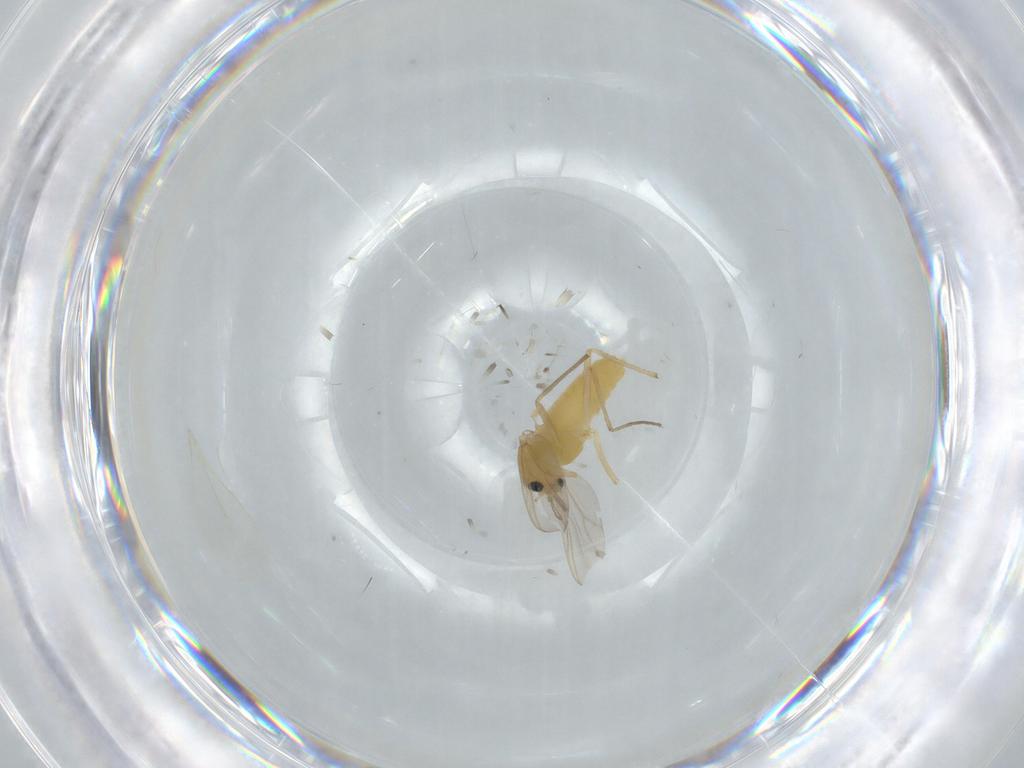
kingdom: Animalia
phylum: Arthropoda
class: Insecta
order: Diptera
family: Chironomidae
